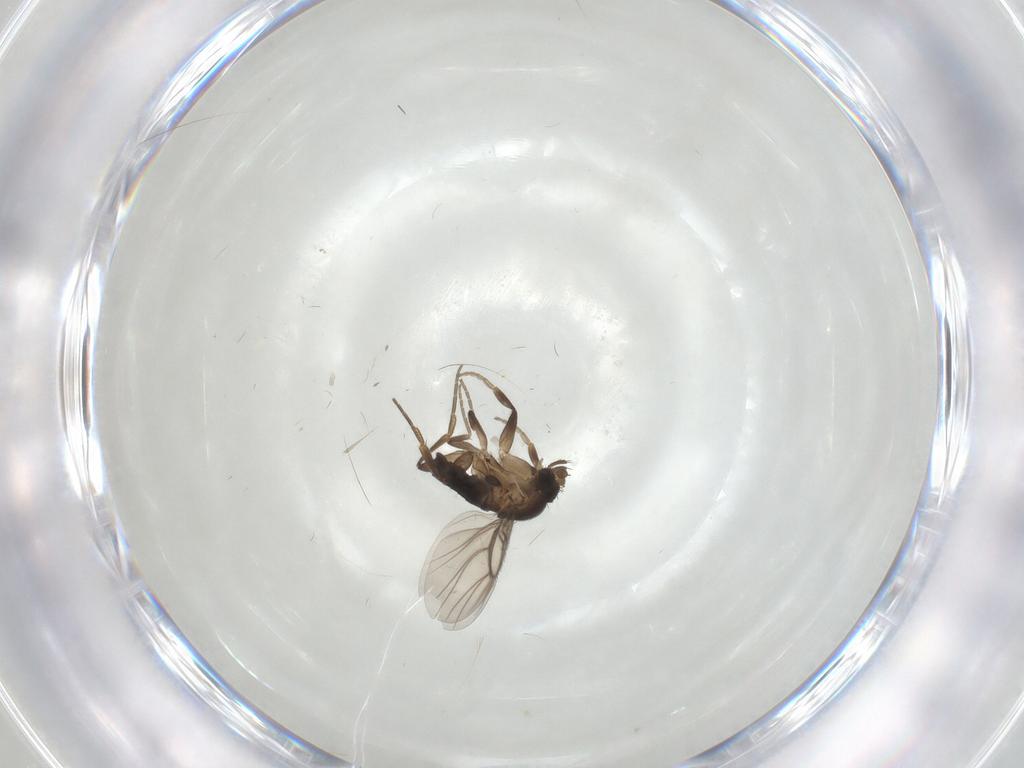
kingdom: Animalia
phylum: Arthropoda
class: Insecta
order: Diptera
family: Phoridae
